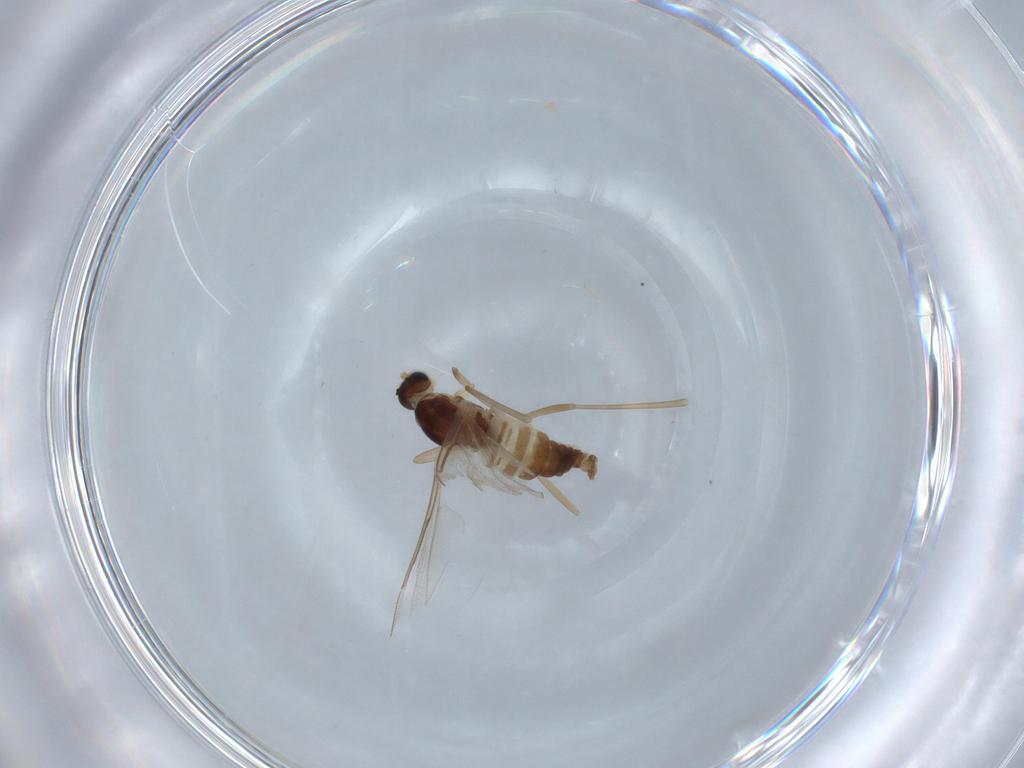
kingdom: Animalia
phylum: Arthropoda
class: Insecta
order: Diptera
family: Cecidomyiidae
